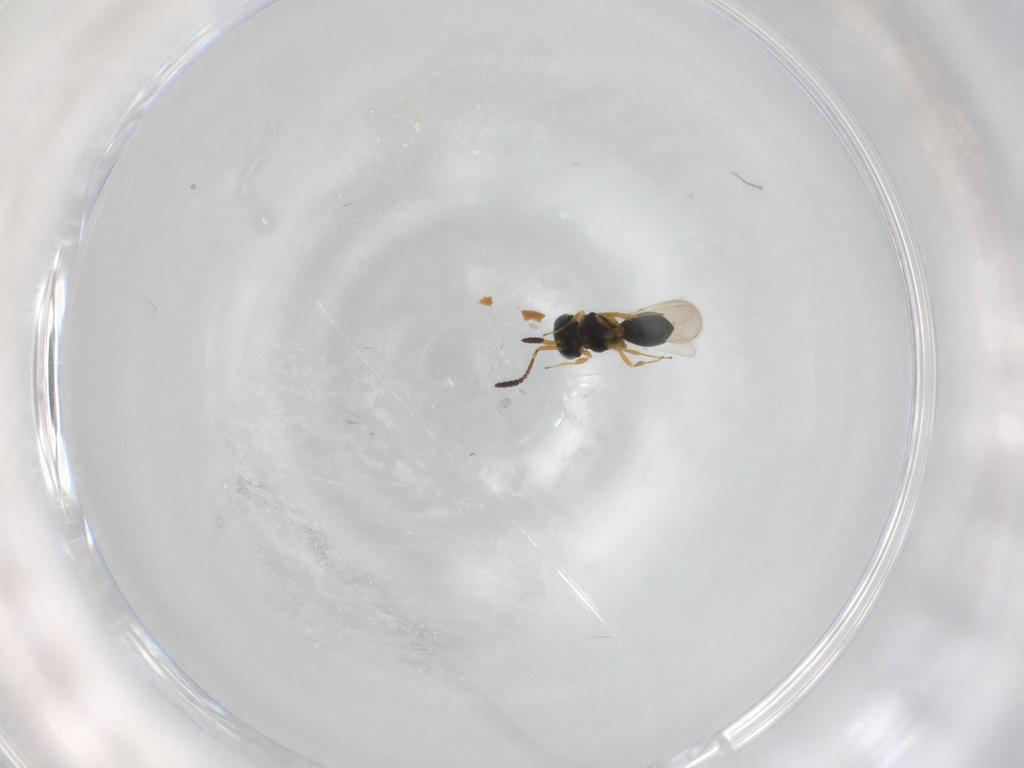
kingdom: Animalia
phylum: Arthropoda
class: Insecta
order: Hymenoptera
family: Scelionidae
